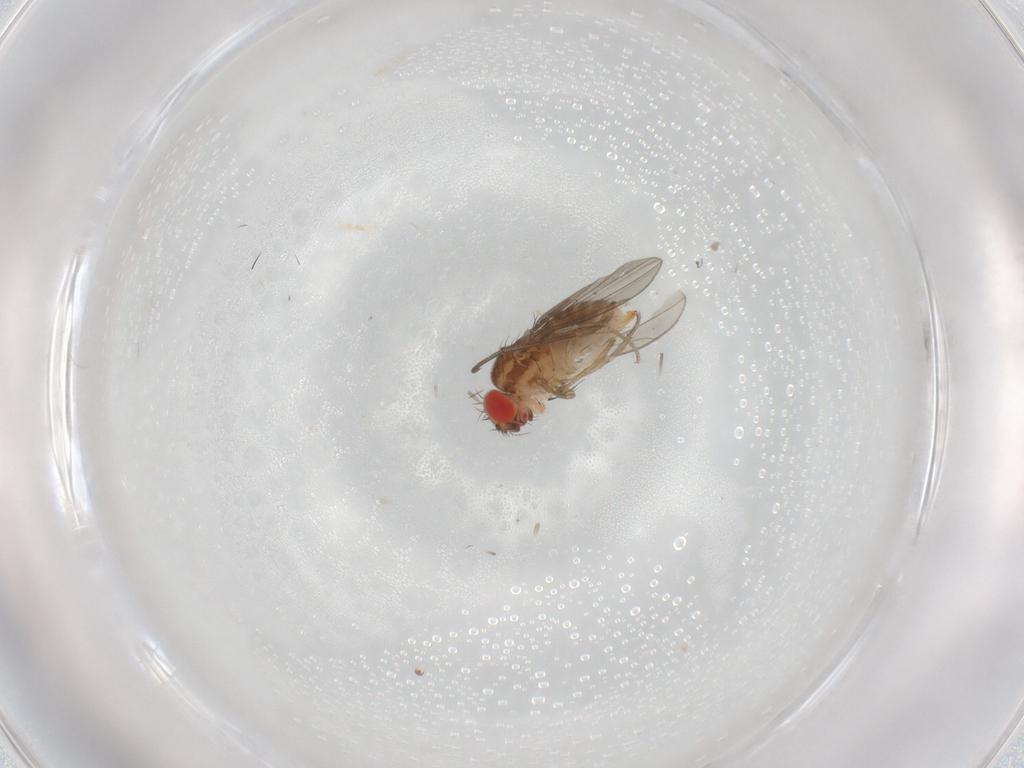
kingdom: Animalia
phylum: Arthropoda
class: Insecta
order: Diptera
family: Drosophilidae
